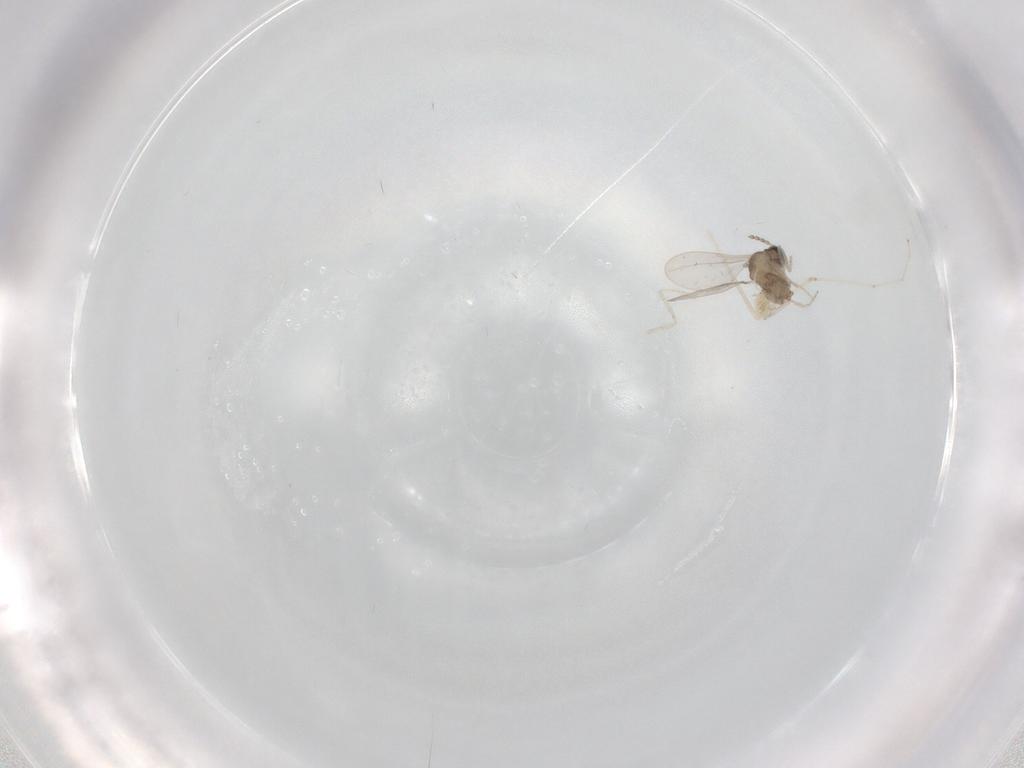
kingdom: Animalia
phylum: Arthropoda
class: Insecta
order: Diptera
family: Cecidomyiidae
